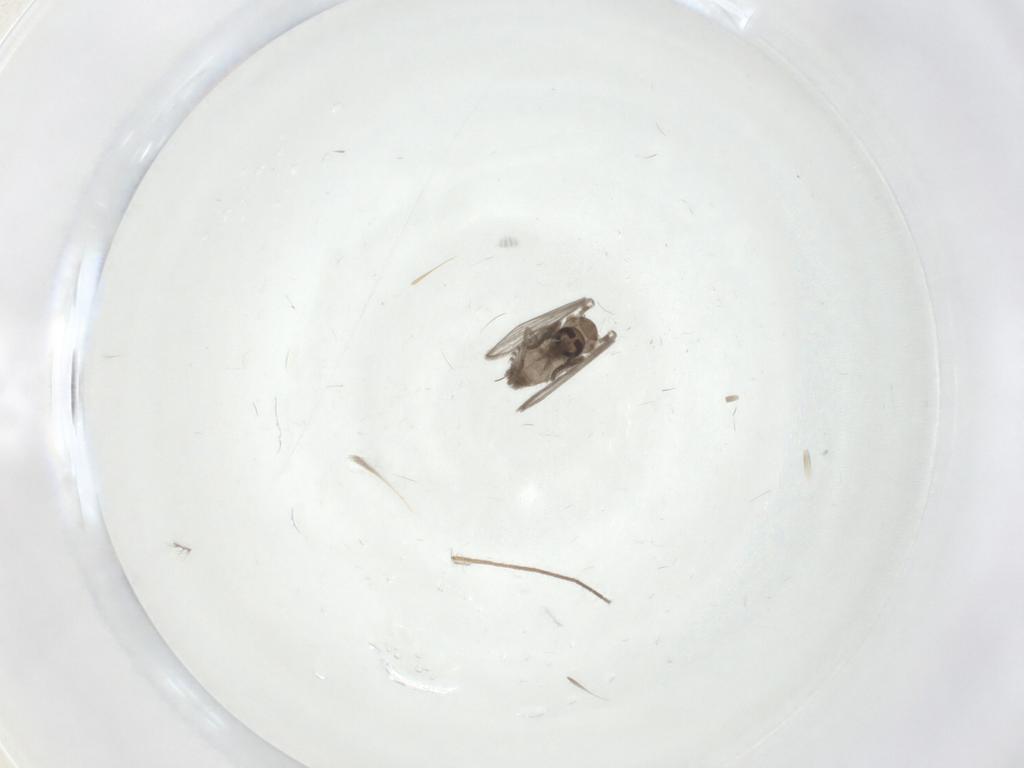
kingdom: Animalia
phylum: Arthropoda
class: Insecta
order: Diptera
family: Psychodidae
